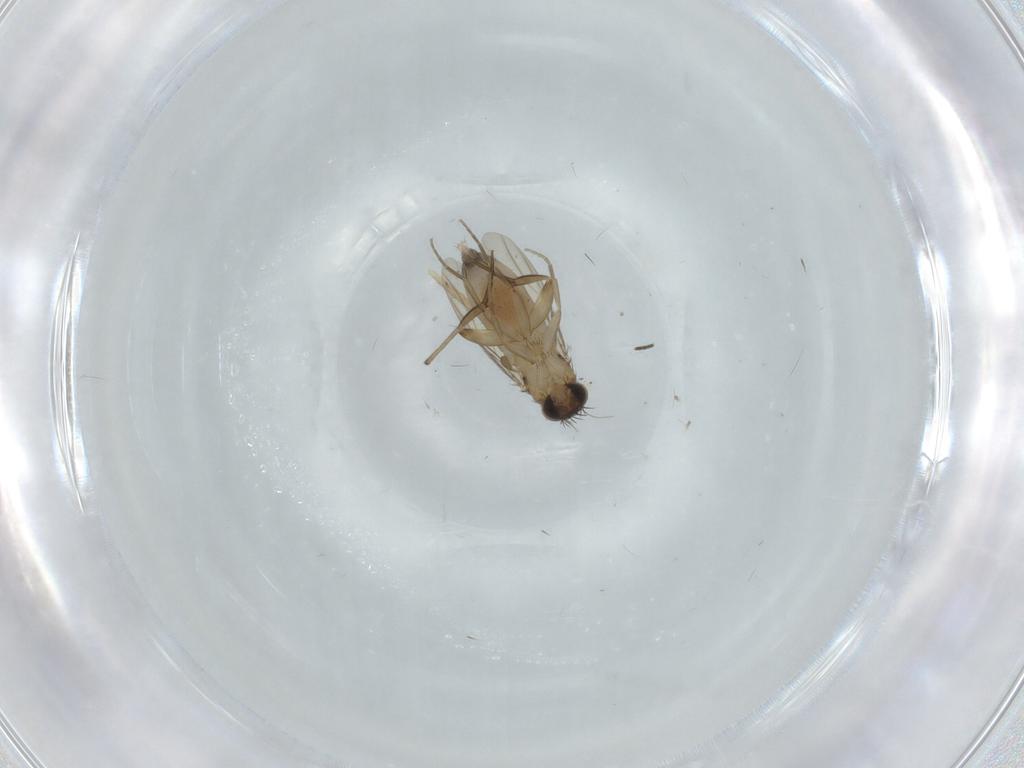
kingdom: Animalia
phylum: Arthropoda
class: Insecta
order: Diptera
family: Phoridae
